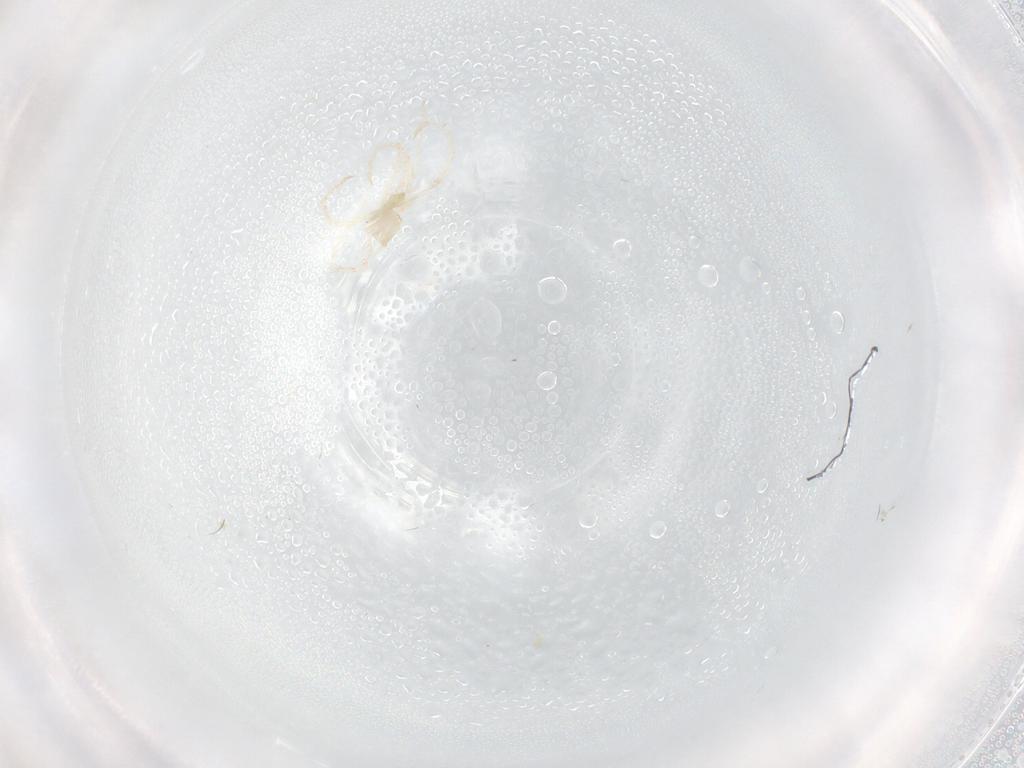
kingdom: Animalia
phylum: Arthropoda
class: Arachnida
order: Trombidiformes
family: Erythraeidae
